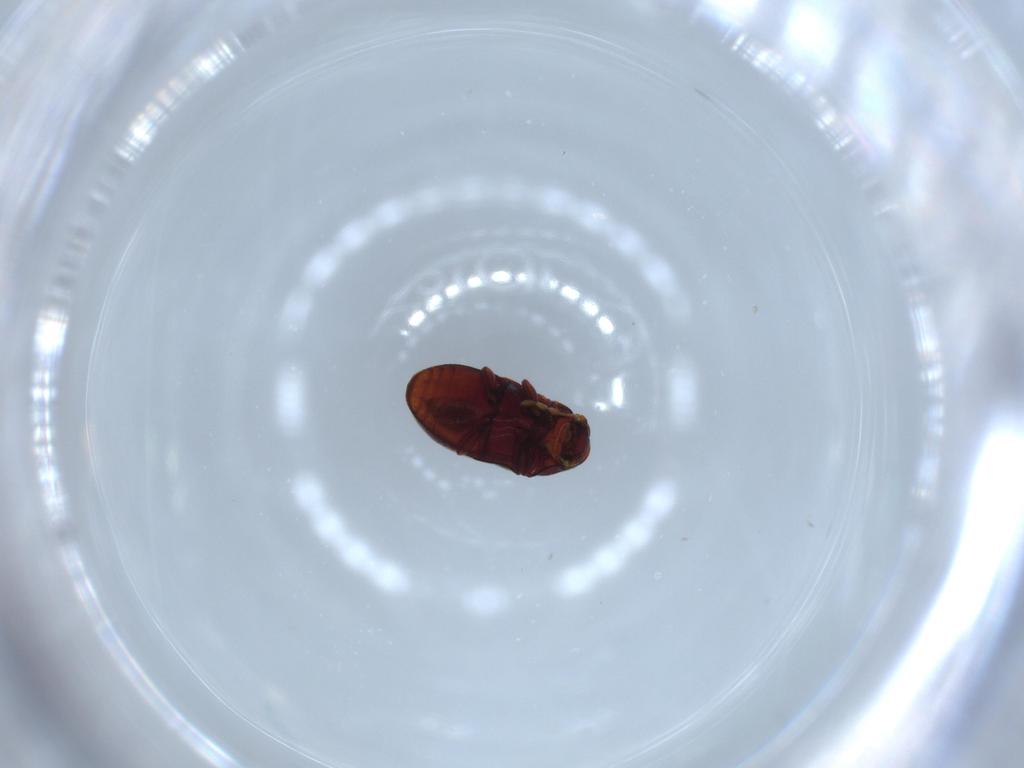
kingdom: Animalia
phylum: Arthropoda
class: Insecta
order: Coleoptera
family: Ptinidae
